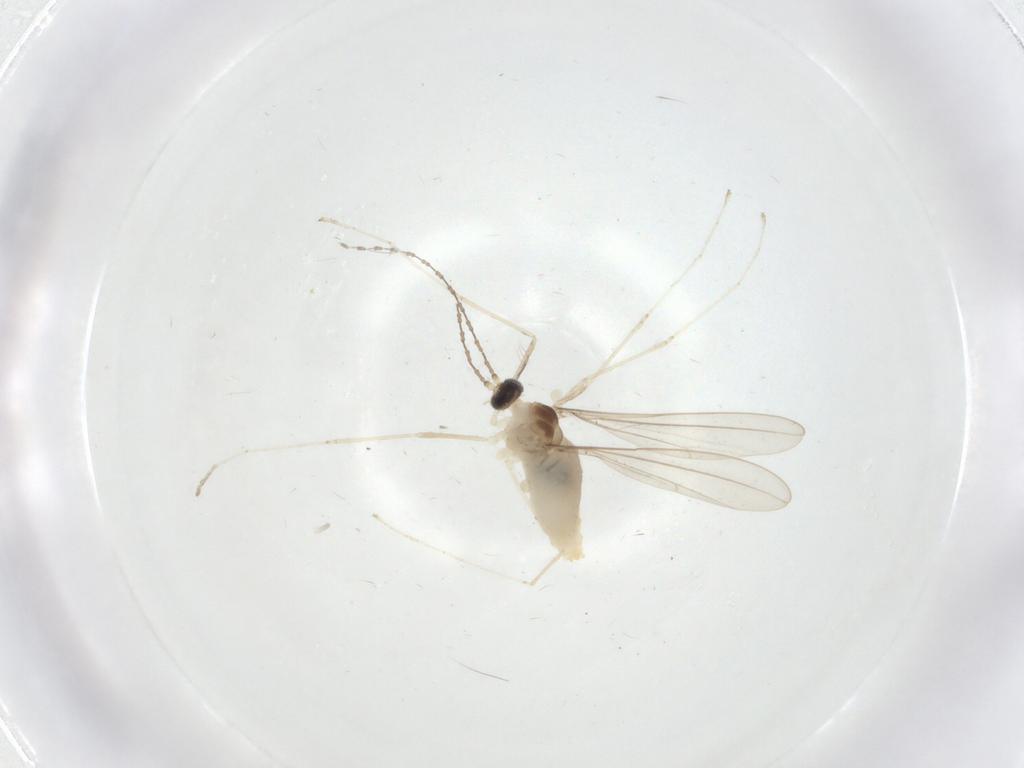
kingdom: Animalia
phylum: Arthropoda
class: Insecta
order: Diptera
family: Cecidomyiidae
